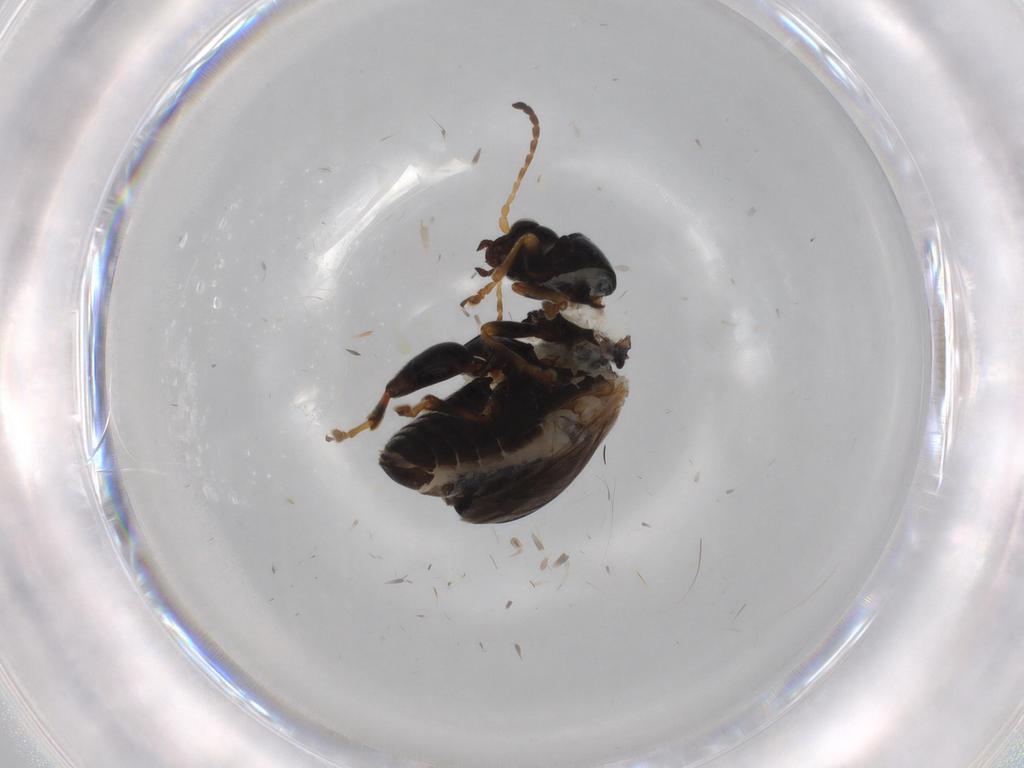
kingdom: Animalia
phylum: Arthropoda
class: Insecta
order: Coleoptera
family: Chrysomelidae
